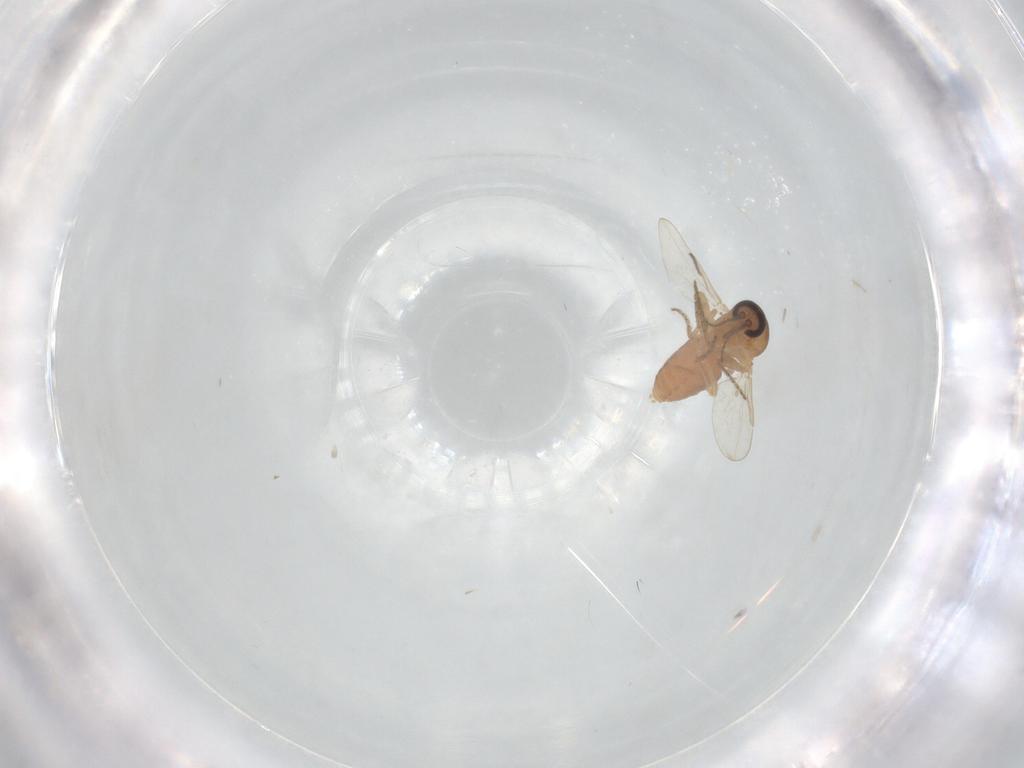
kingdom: Animalia
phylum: Arthropoda
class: Insecta
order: Diptera
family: Ceratopogonidae
